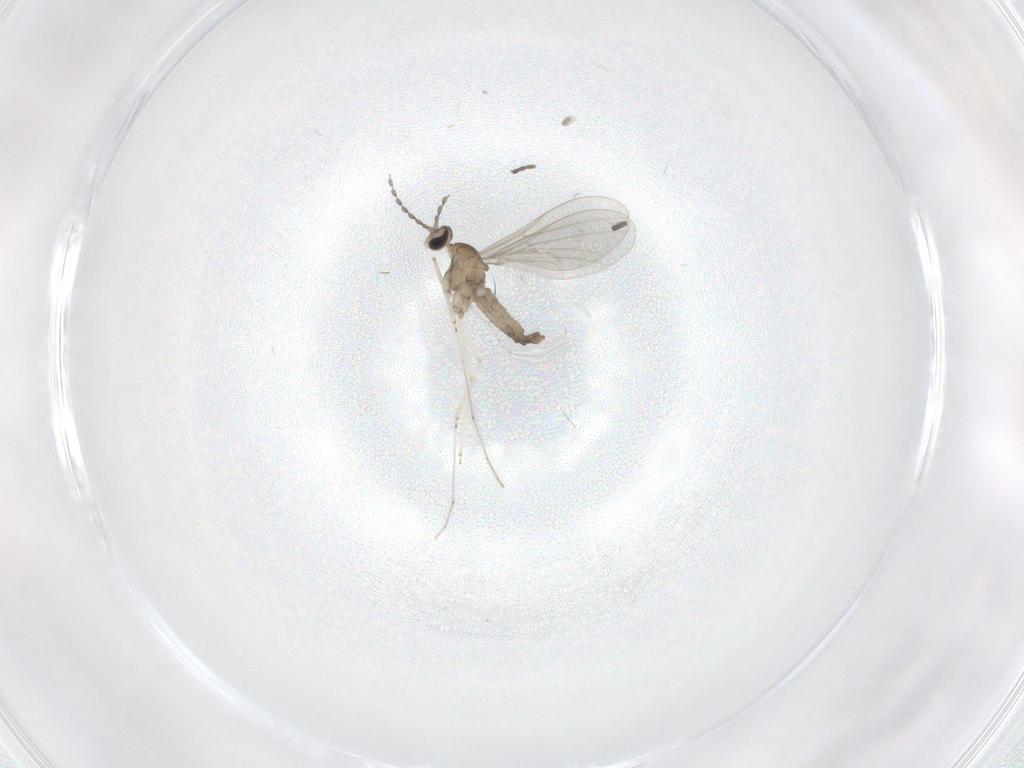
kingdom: Animalia
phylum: Arthropoda
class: Insecta
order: Diptera
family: Cecidomyiidae
